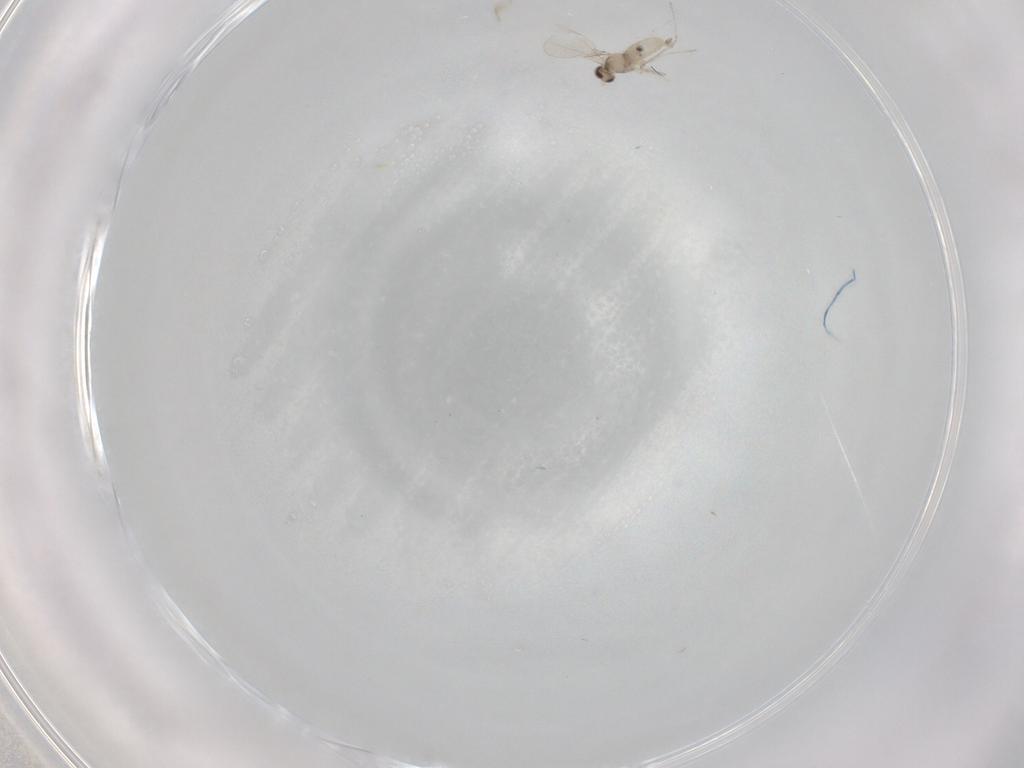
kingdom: Animalia
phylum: Arthropoda
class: Insecta
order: Diptera
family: Cecidomyiidae
